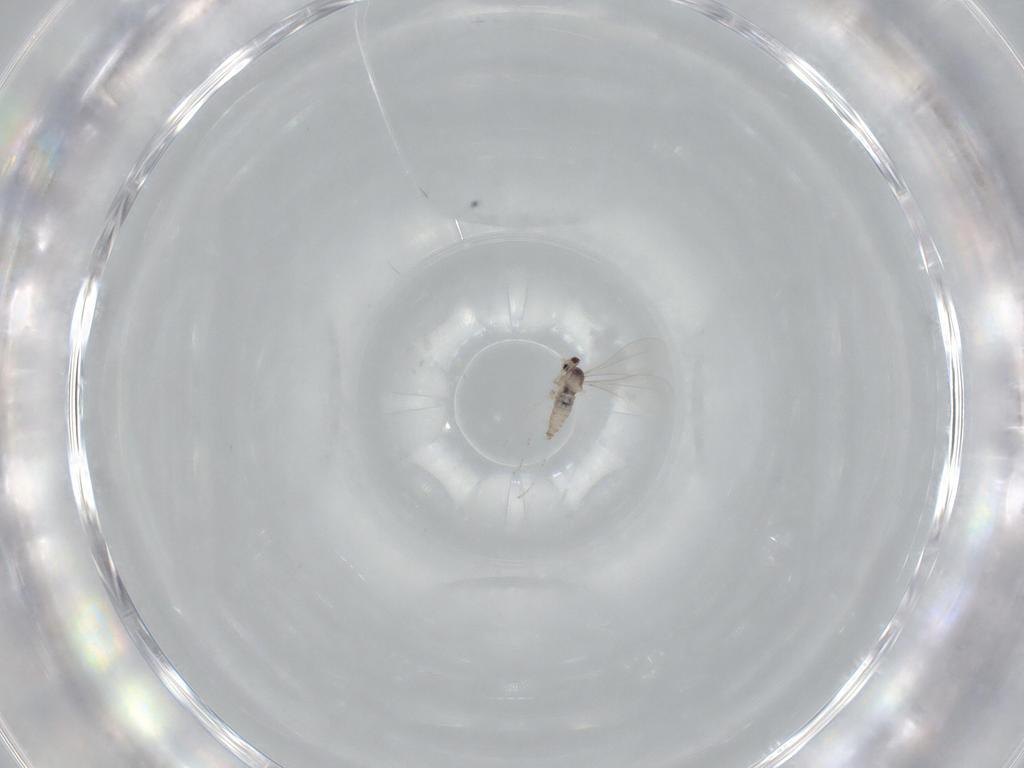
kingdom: Animalia
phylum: Arthropoda
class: Insecta
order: Diptera
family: Cecidomyiidae
